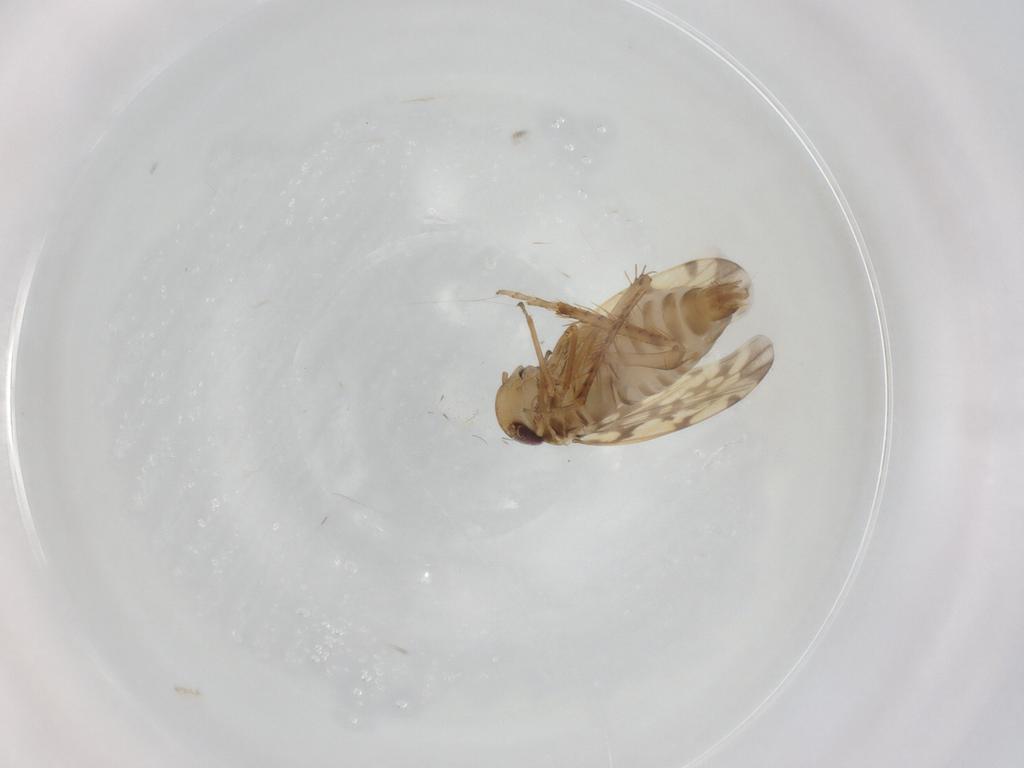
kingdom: Animalia
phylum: Arthropoda
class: Insecta
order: Hemiptera
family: Cicadellidae
